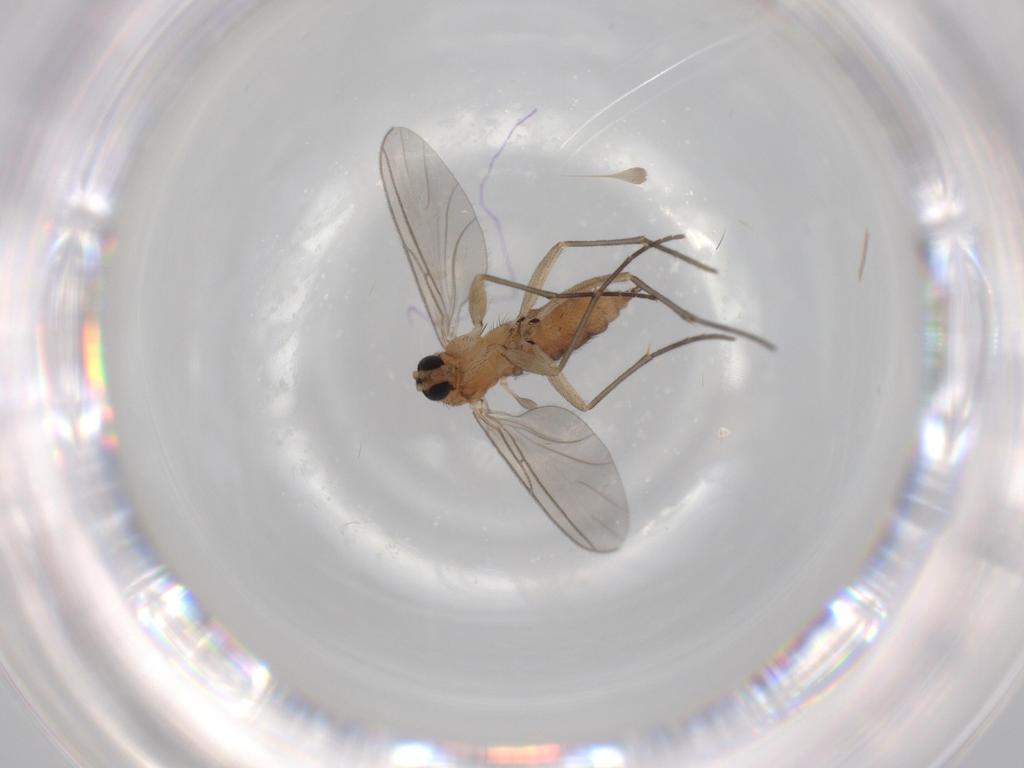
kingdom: Animalia
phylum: Arthropoda
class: Insecta
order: Diptera
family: Sciaridae
